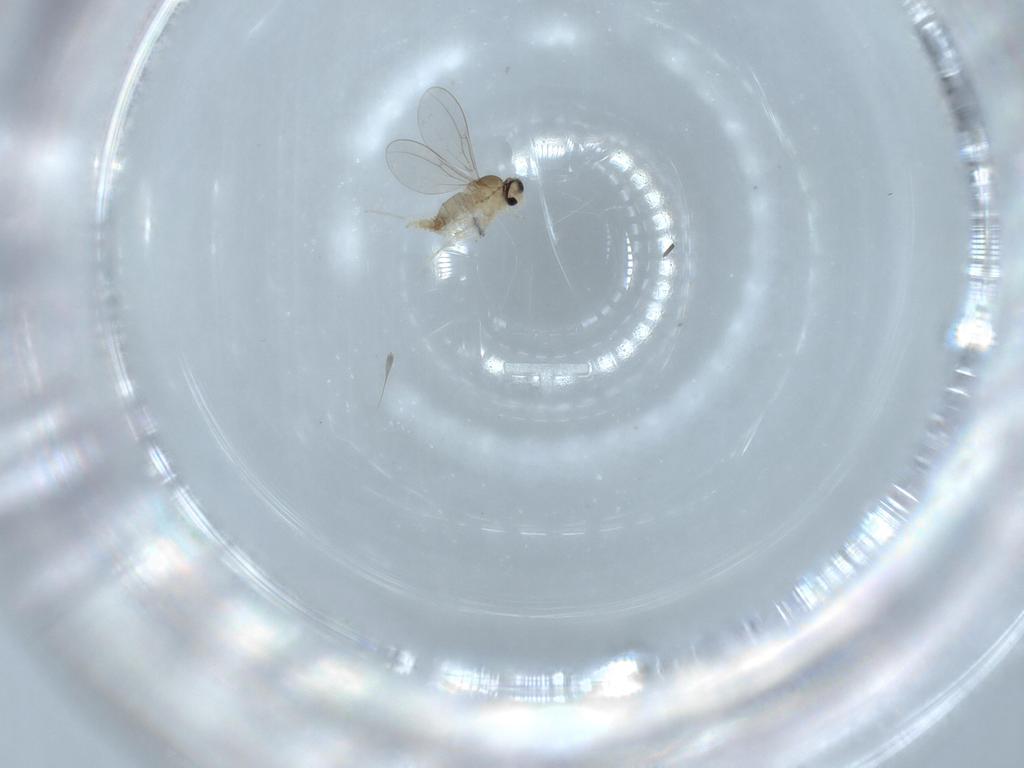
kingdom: Animalia
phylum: Arthropoda
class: Insecta
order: Diptera
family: Cecidomyiidae
